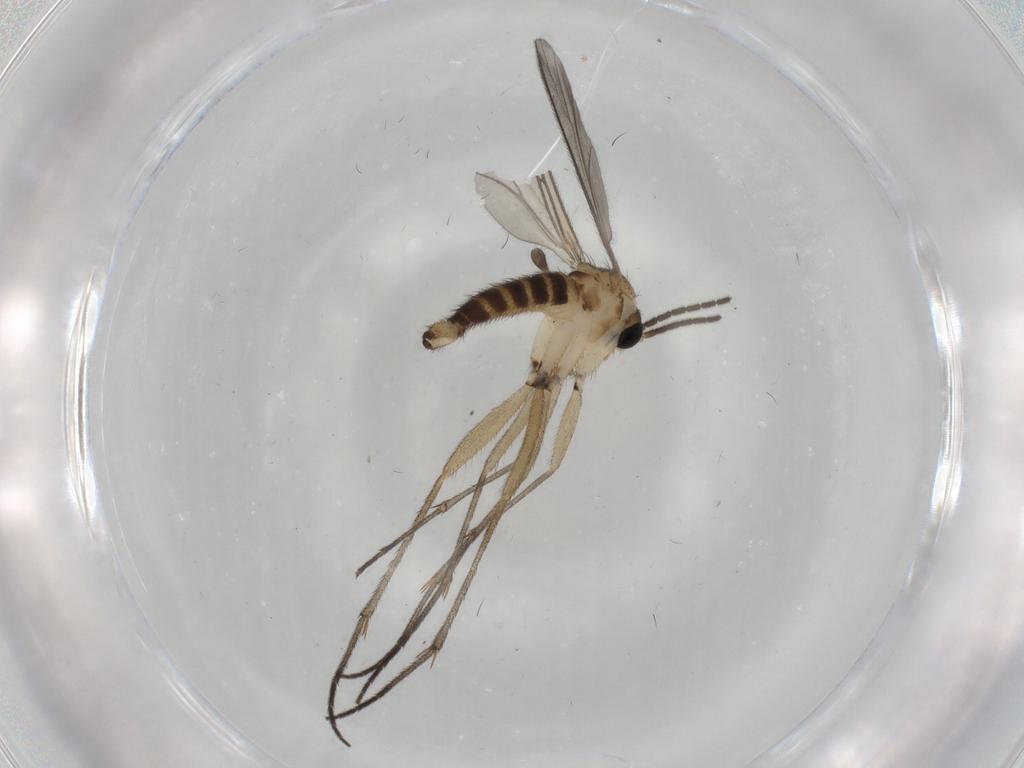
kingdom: Animalia
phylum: Arthropoda
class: Insecta
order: Diptera
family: Sciaridae
